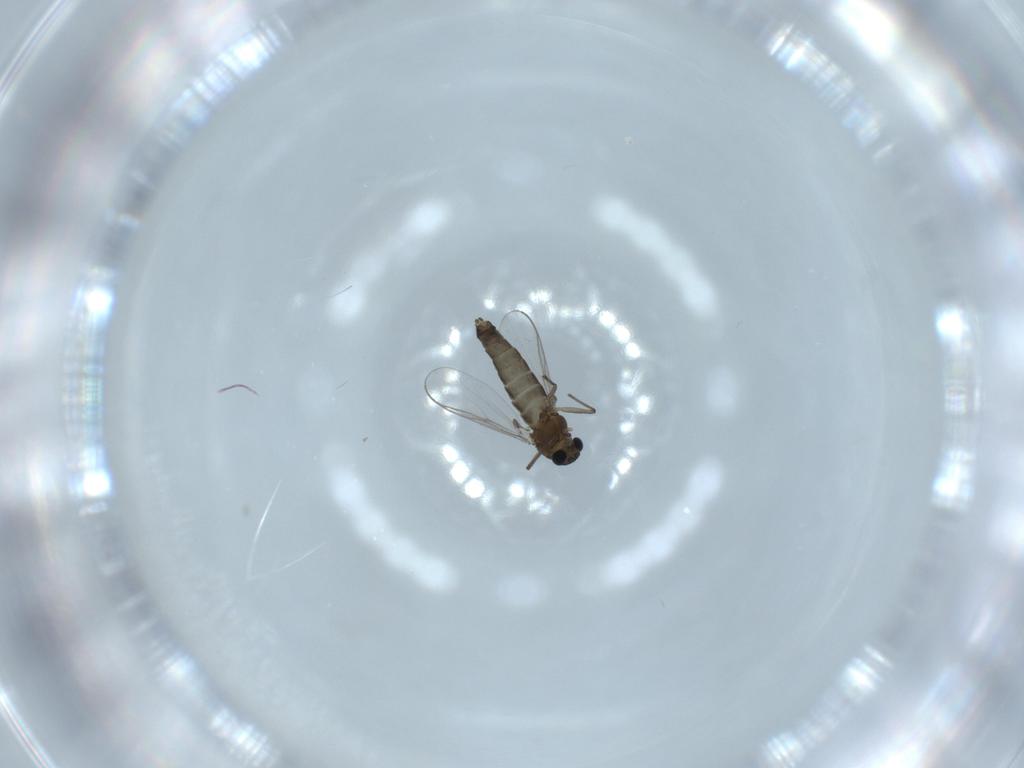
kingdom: Animalia
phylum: Arthropoda
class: Insecta
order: Diptera
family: Chironomidae
